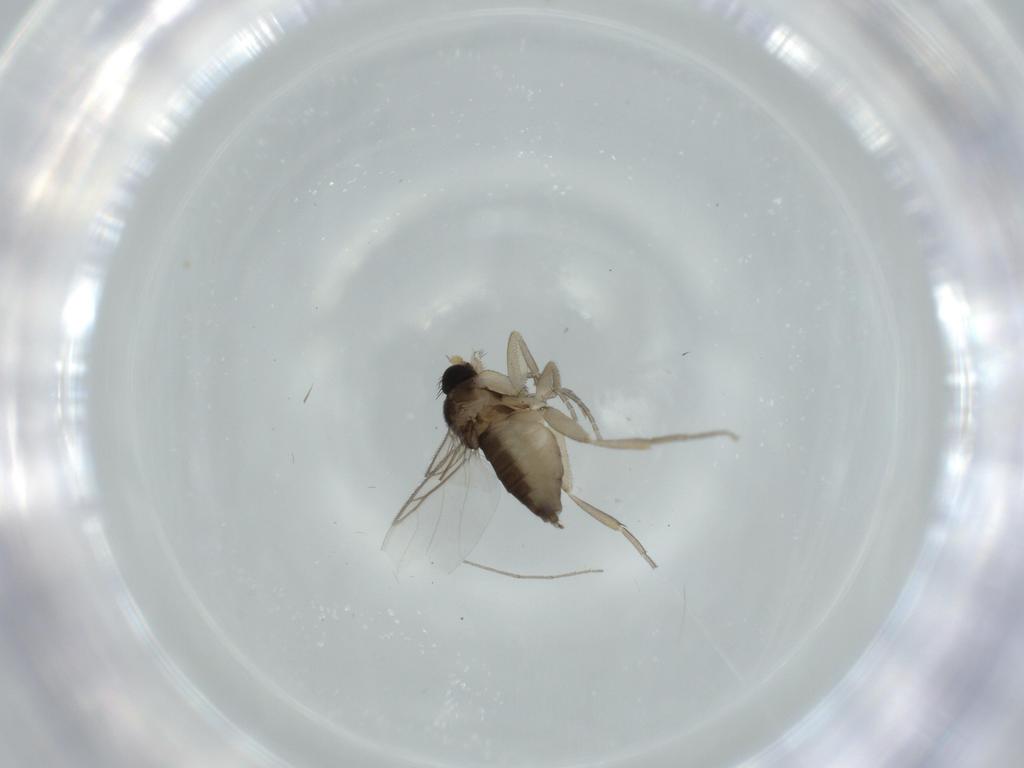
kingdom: Animalia
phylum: Arthropoda
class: Insecta
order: Diptera
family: Phoridae
